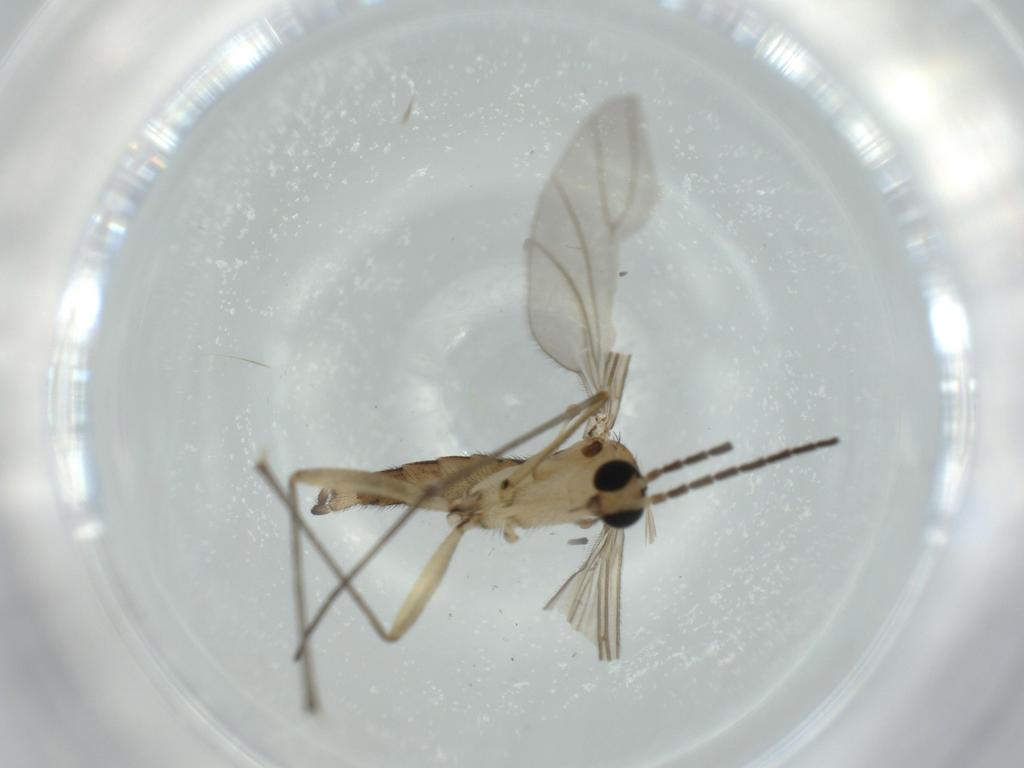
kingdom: Animalia
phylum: Arthropoda
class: Insecta
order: Diptera
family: Sciaridae
